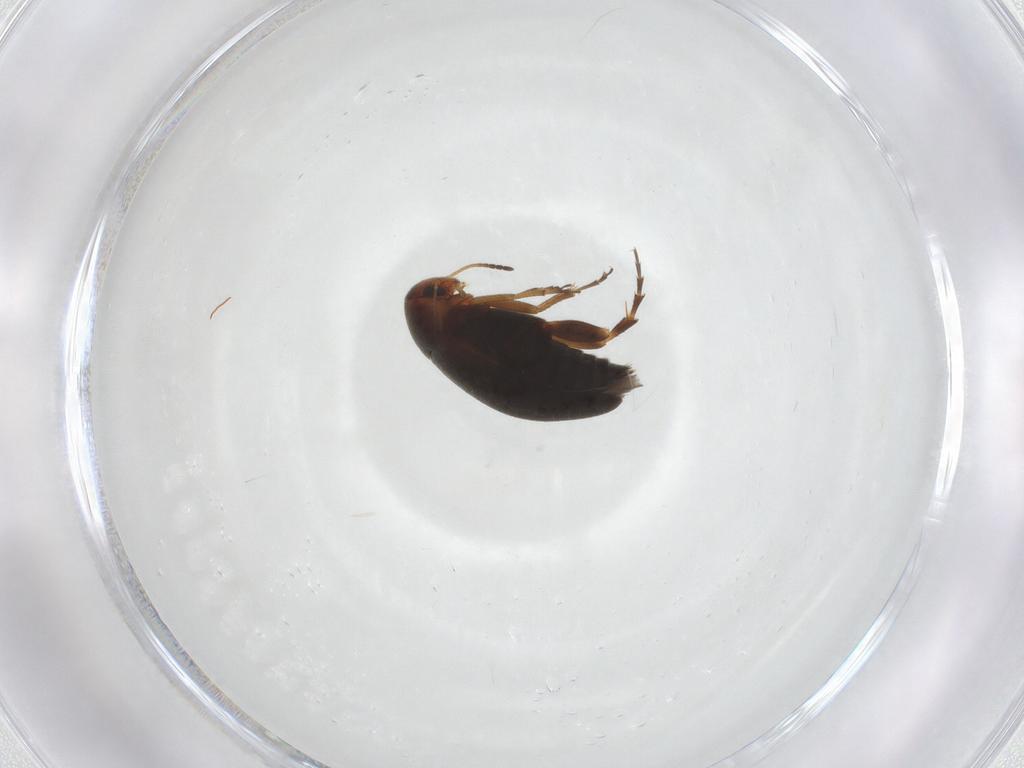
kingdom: Animalia
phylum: Arthropoda
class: Insecta
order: Coleoptera
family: Scraptiidae
